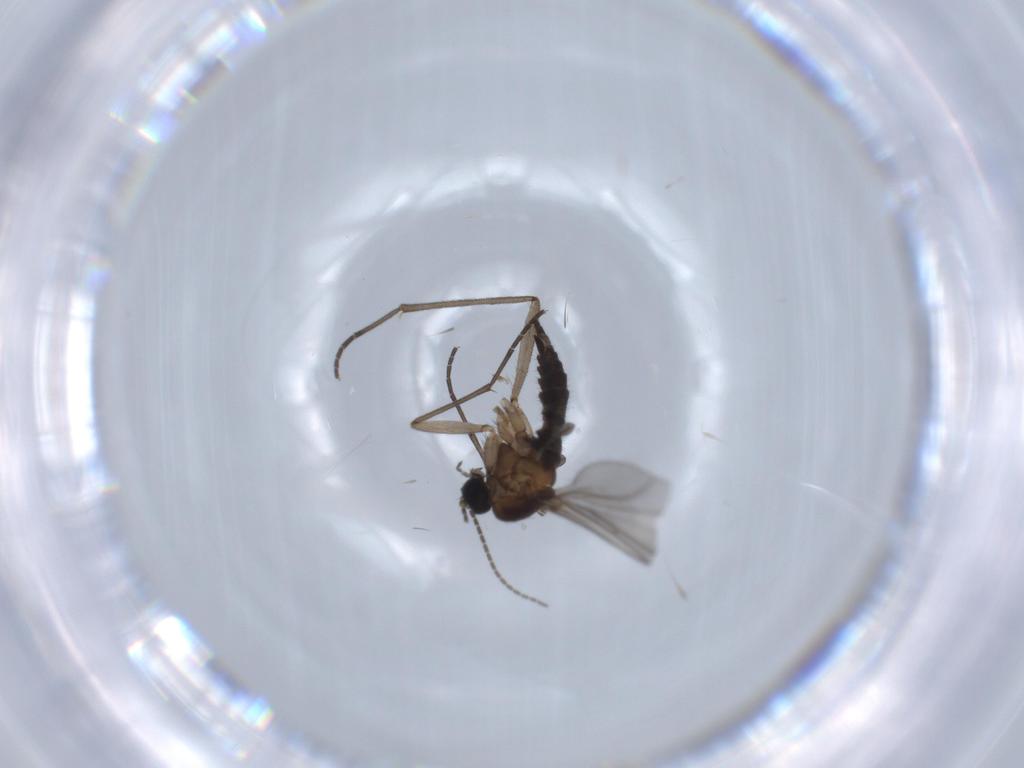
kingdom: Animalia
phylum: Arthropoda
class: Insecta
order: Diptera
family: Sciaridae
